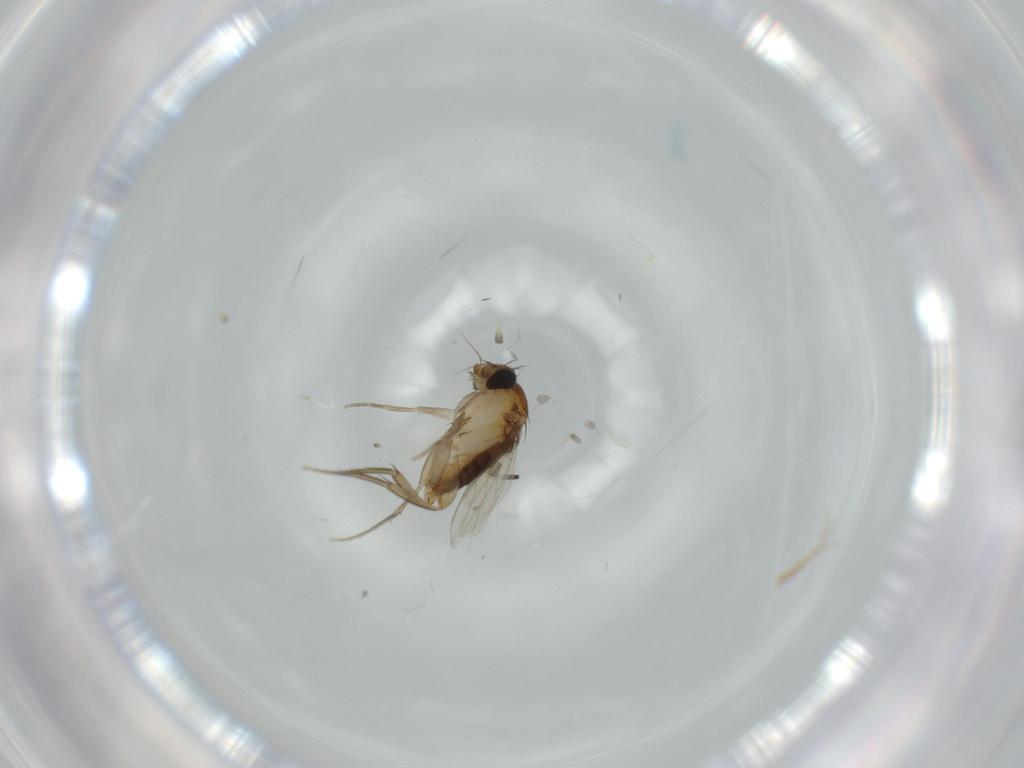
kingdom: Animalia
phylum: Arthropoda
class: Insecta
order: Diptera
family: Phoridae
